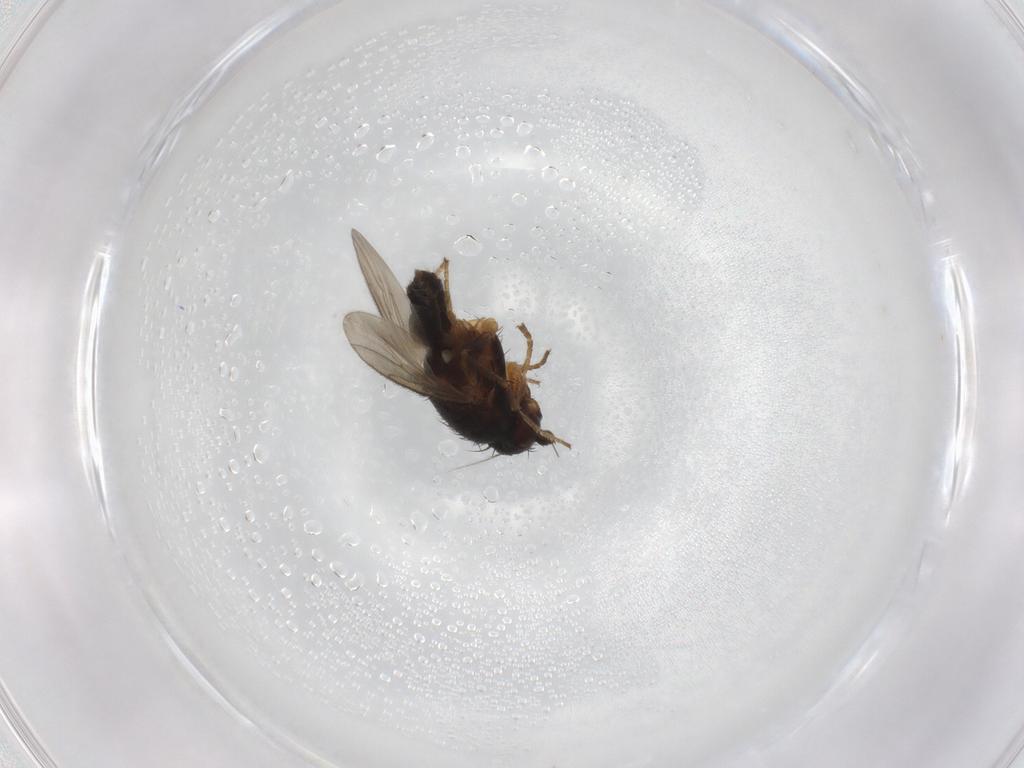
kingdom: Animalia
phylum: Arthropoda
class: Insecta
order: Diptera
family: Sphaeroceridae
